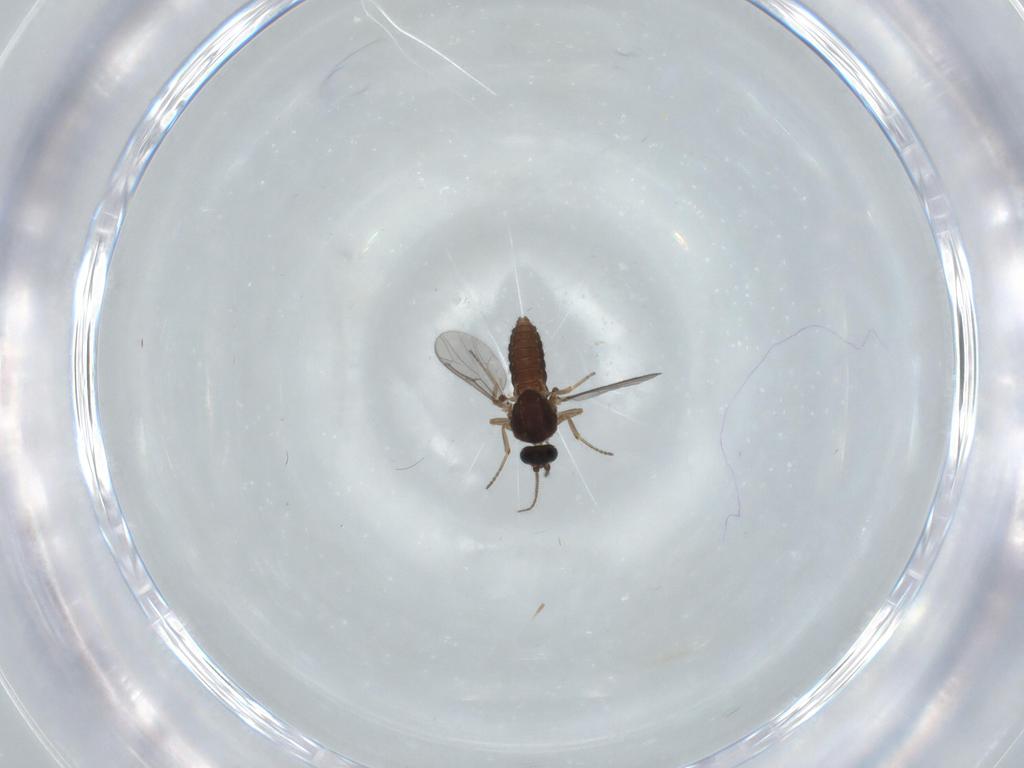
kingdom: Animalia
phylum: Arthropoda
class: Insecta
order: Diptera
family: Ceratopogonidae
